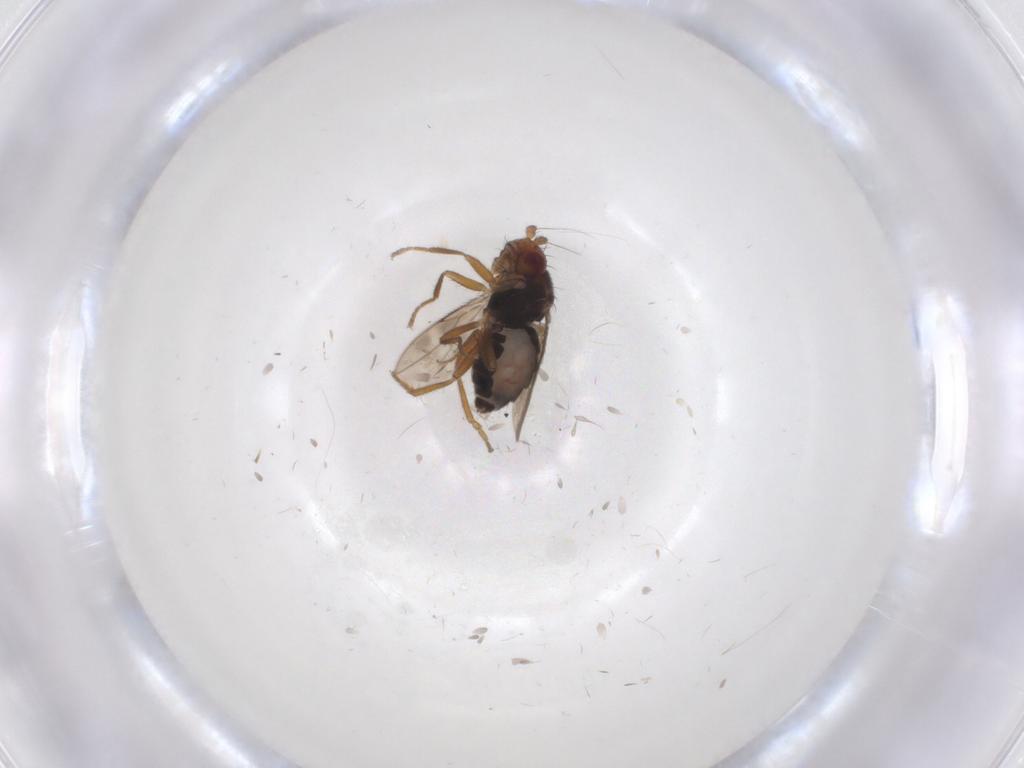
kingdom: Animalia
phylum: Arthropoda
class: Insecta
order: Diptera
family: Sphaeroceridae
